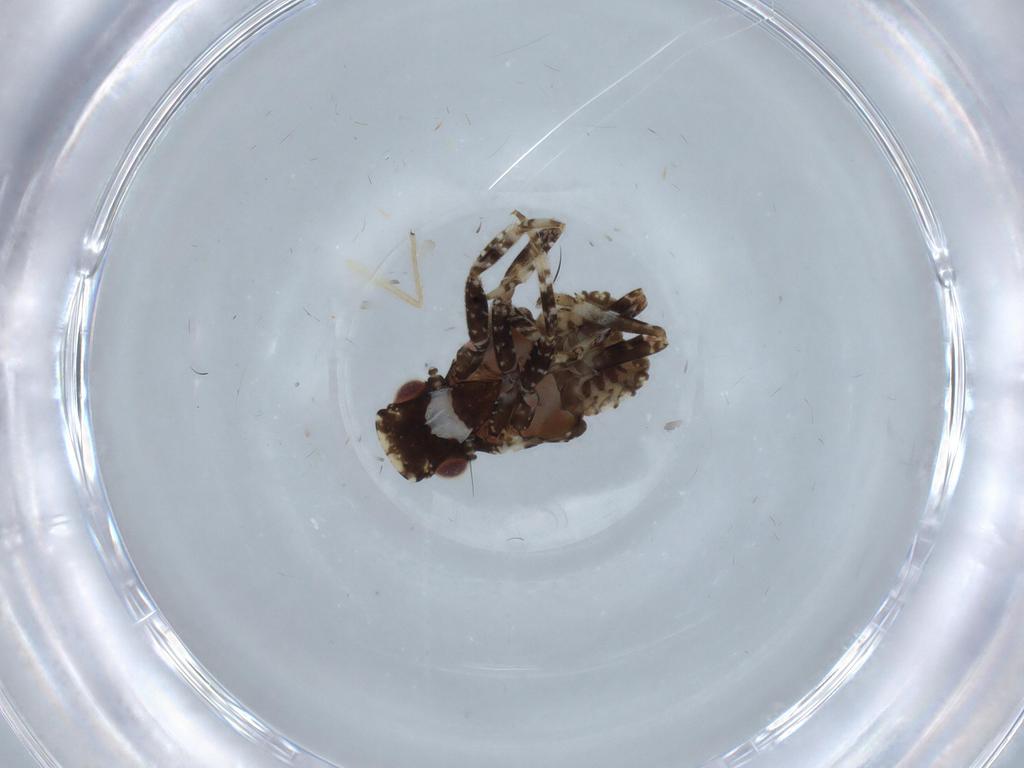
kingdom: Animalia
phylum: Arthropoda
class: Insecta
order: Hemiptera
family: Fulgoridae
